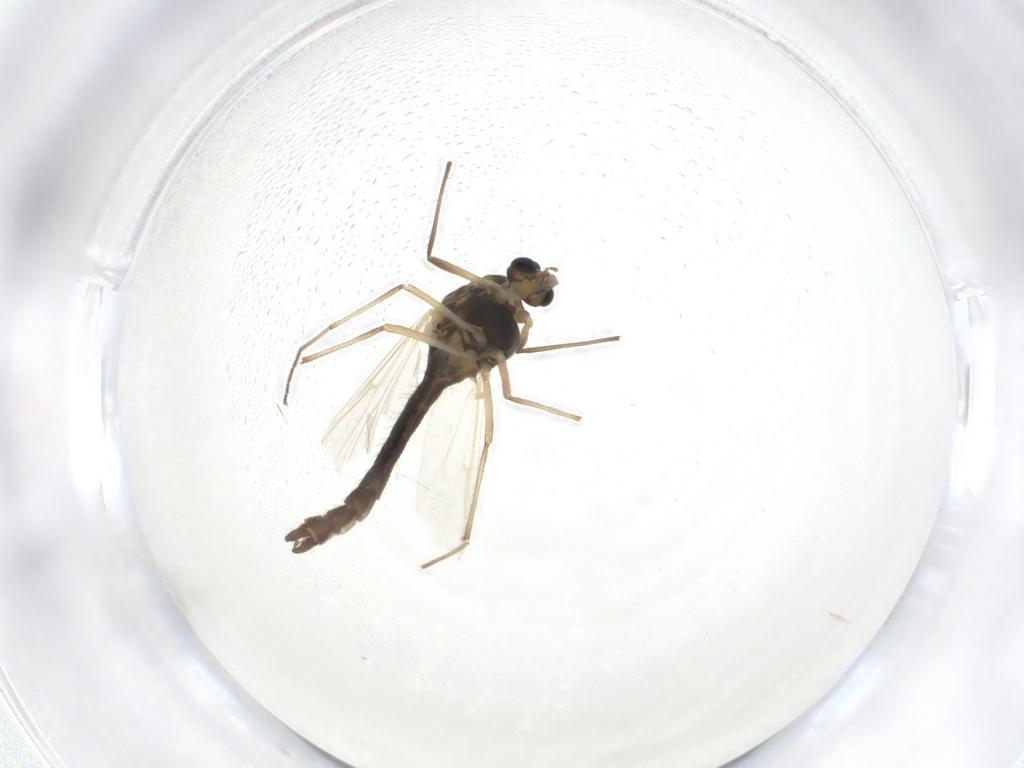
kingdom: Animalia
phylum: Arthropoda
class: Insecta
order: Diptera
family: Chironomidae
